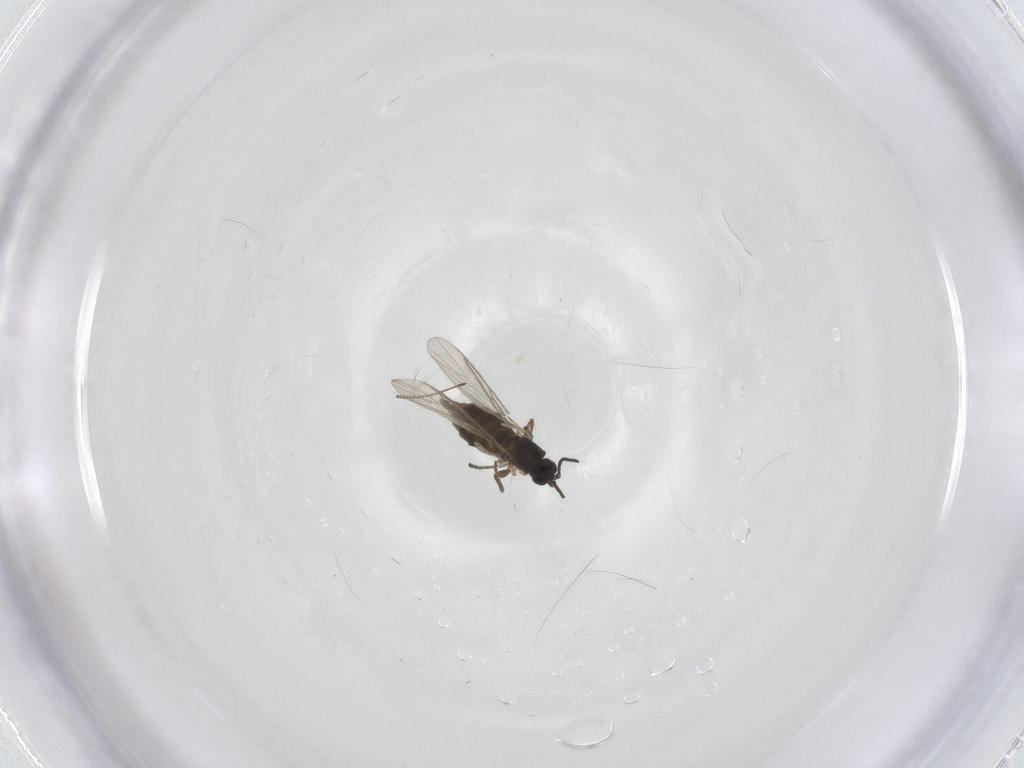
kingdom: Animalia
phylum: Arthropoda
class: Insecta
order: Diptera
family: Sciaridae
